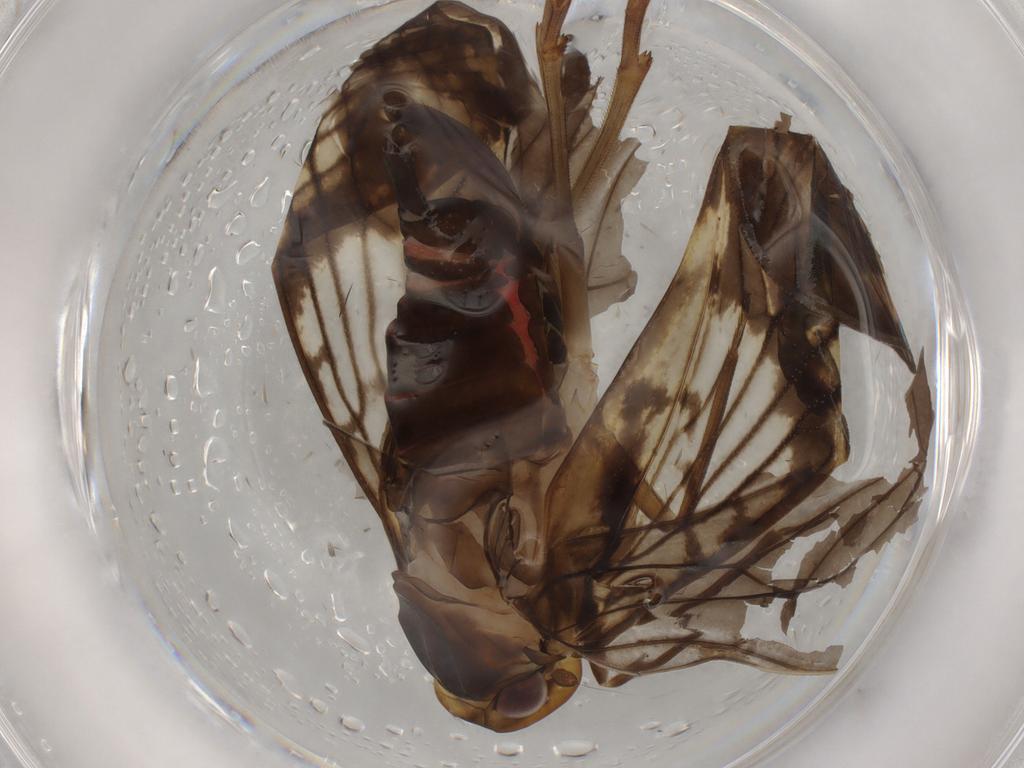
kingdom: Animalia
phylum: Arthropoda
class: Insecta
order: Hemiptera
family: Cixiidae
